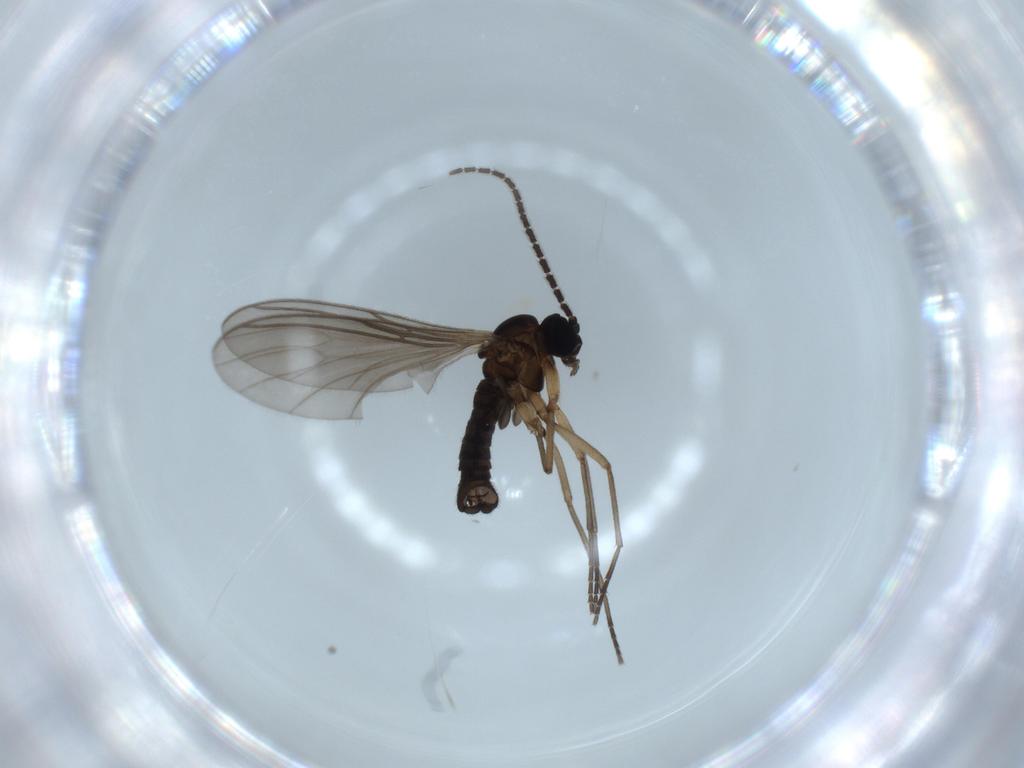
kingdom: Animalia
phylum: Arthropoda
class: Insecta
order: Diptera
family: Sciaridae
